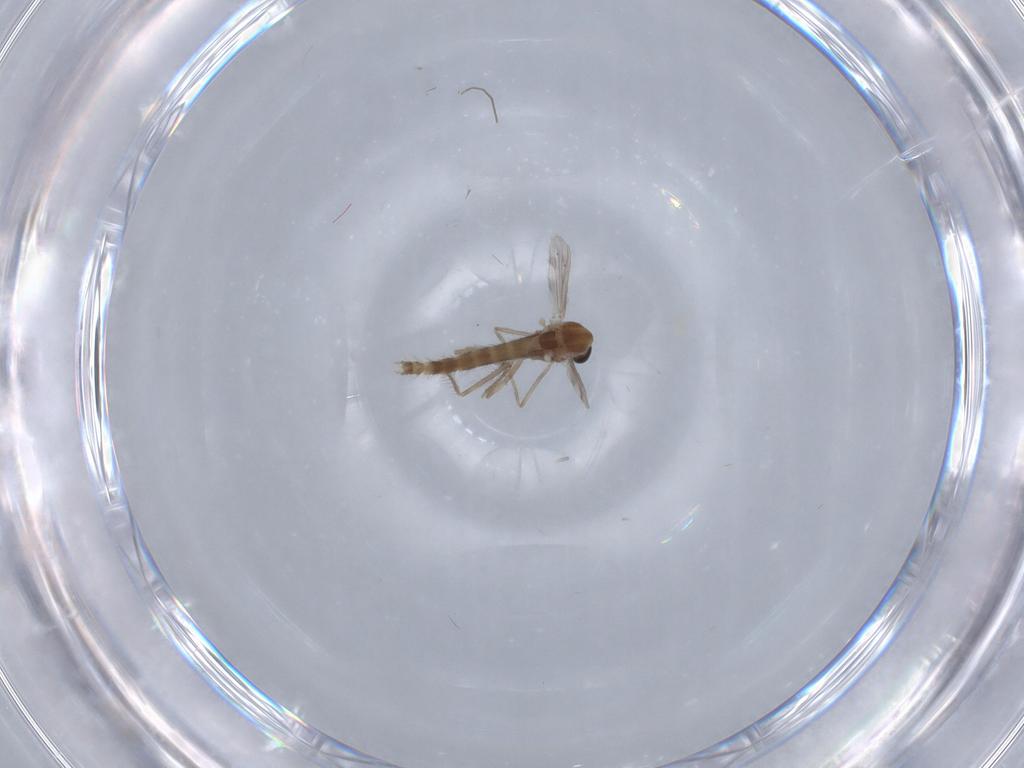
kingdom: Animalia
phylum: Arthropoda
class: Insecta
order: Diptera
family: Chironomidae
